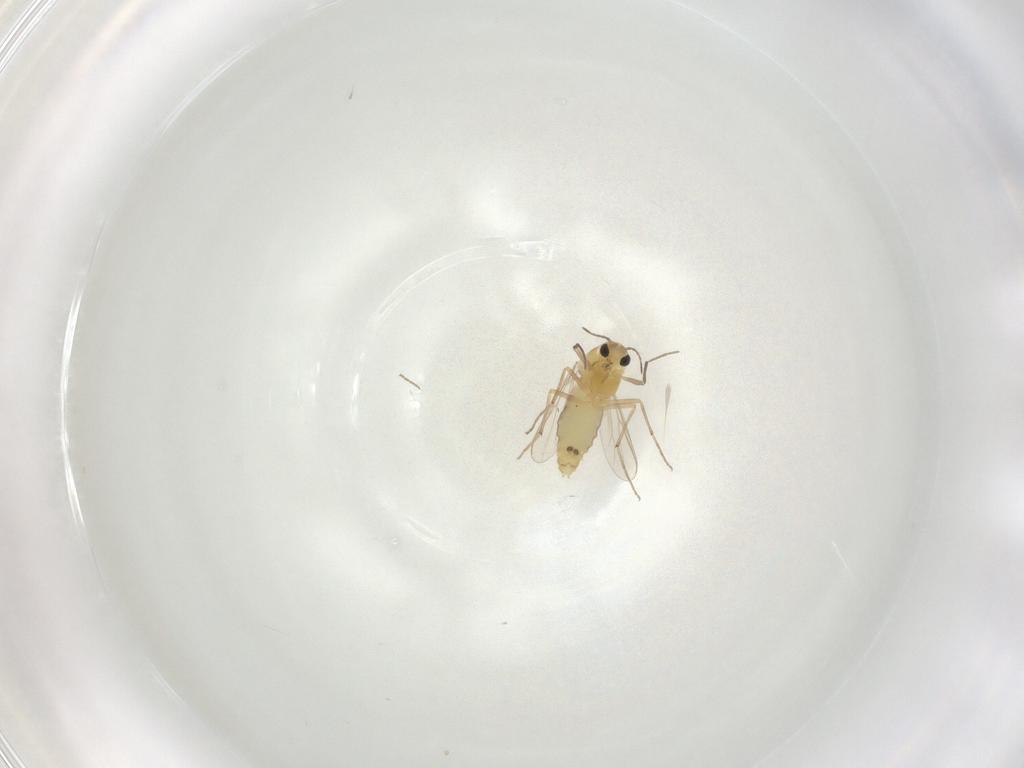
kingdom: Animalia
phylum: Arthropoda
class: Insecta
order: Diptera
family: Chironomidae
